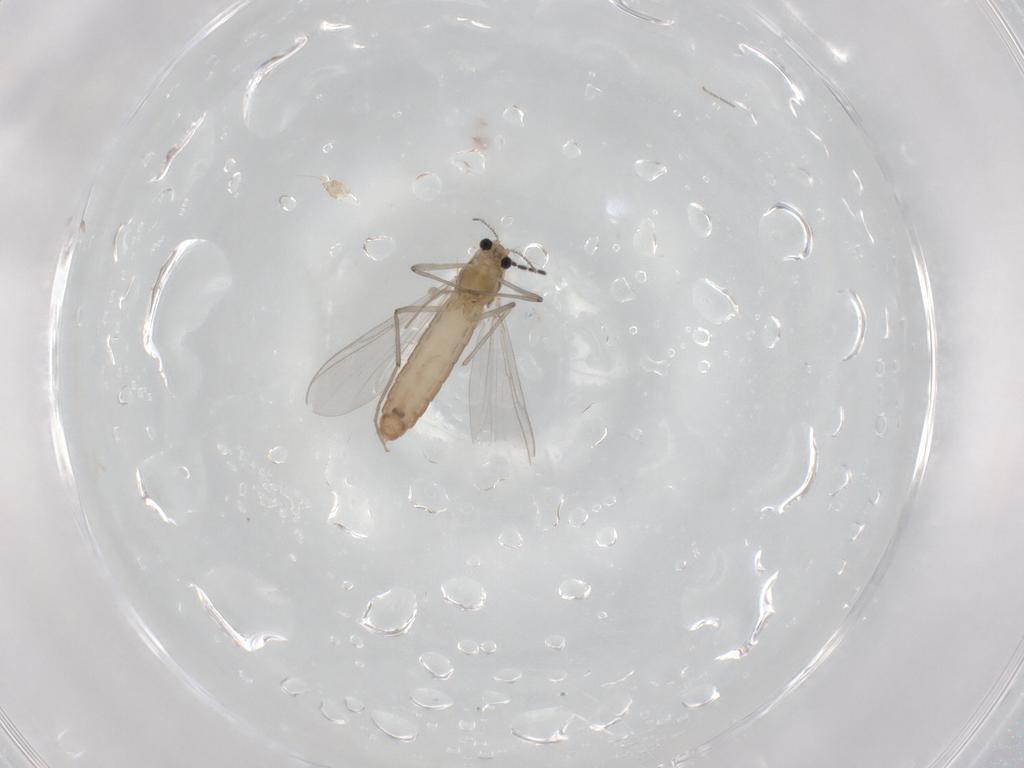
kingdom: Animalia
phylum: Arthropoda
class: Insecta
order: Diptera
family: Chironomidae
